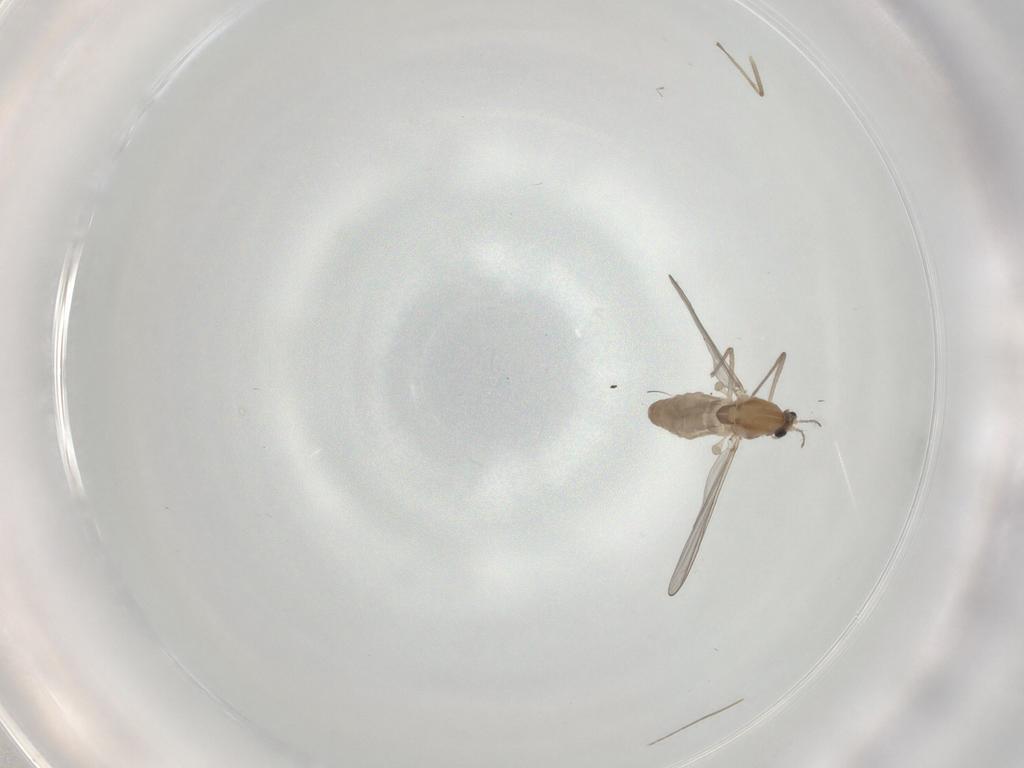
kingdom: Animalia
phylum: Arthropoda
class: Insecta
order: Diptera
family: Chironomidae
